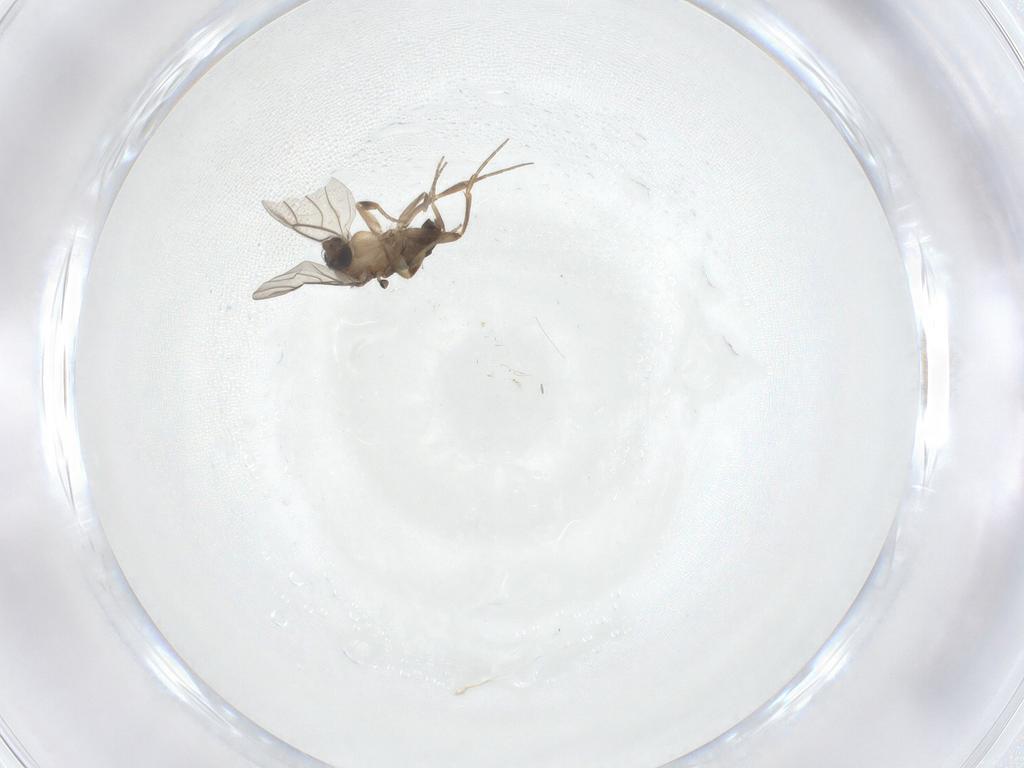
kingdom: Animalia
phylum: Arthropoda
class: Insecta
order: Diptera
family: Phoridae
